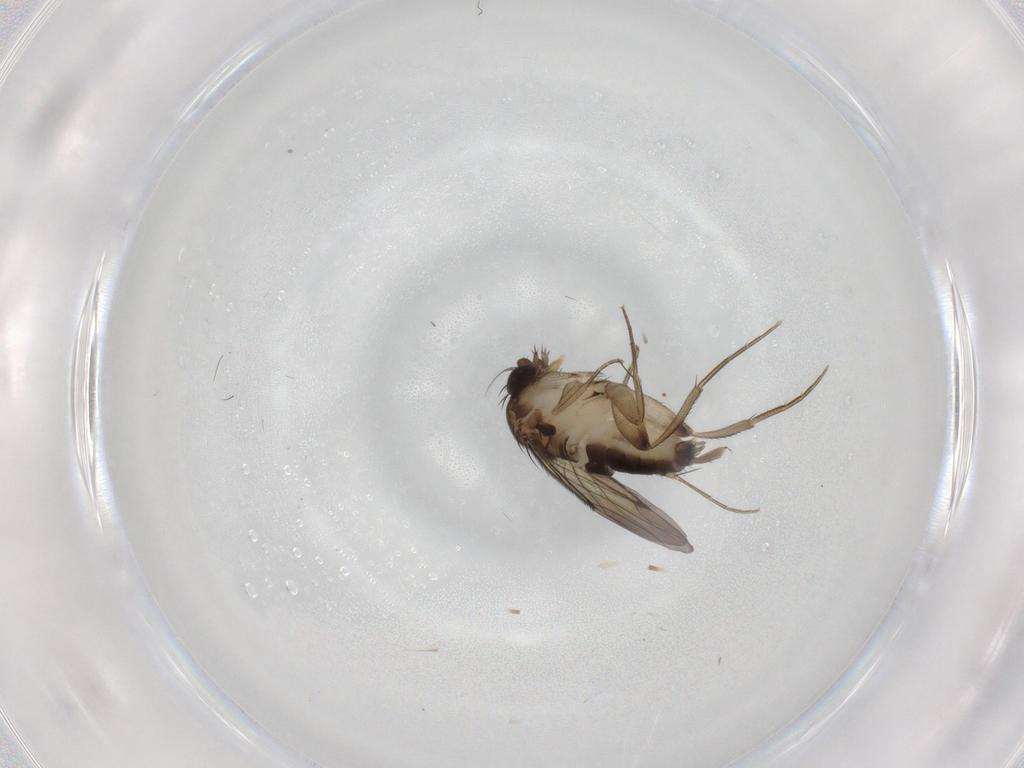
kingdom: Animalia
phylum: Arthropoda
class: Insecta
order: Diptera
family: Phoridae
